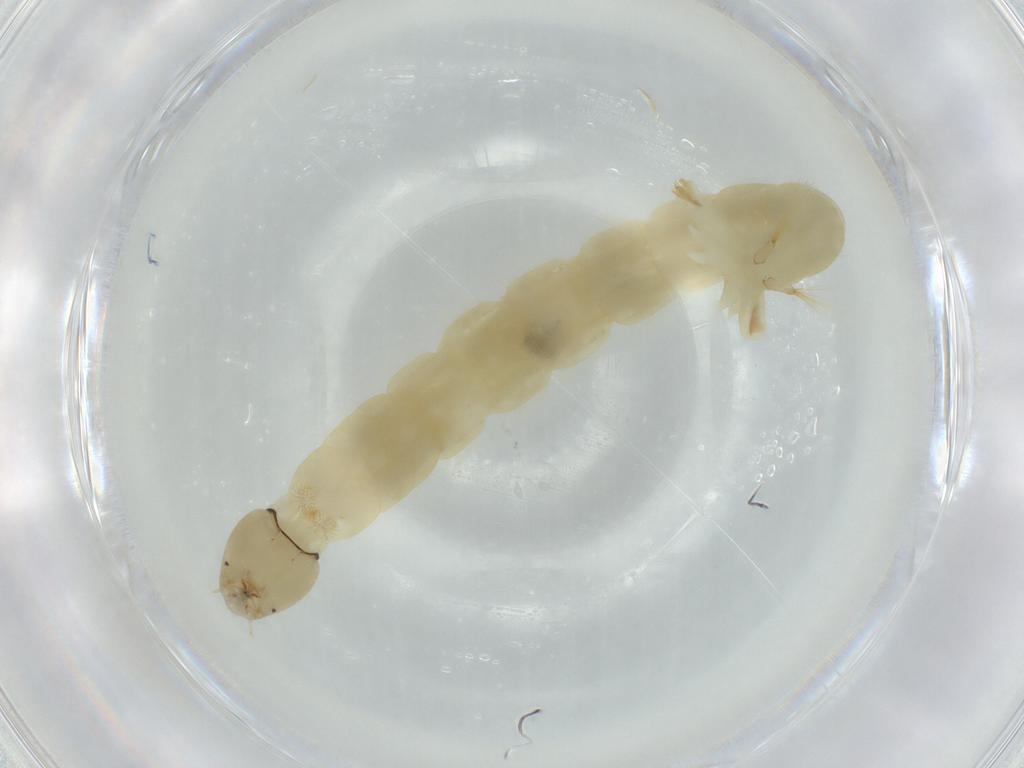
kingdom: Animalia
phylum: Arthropoda
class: Insecta
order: Diptera
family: Chironomidae
